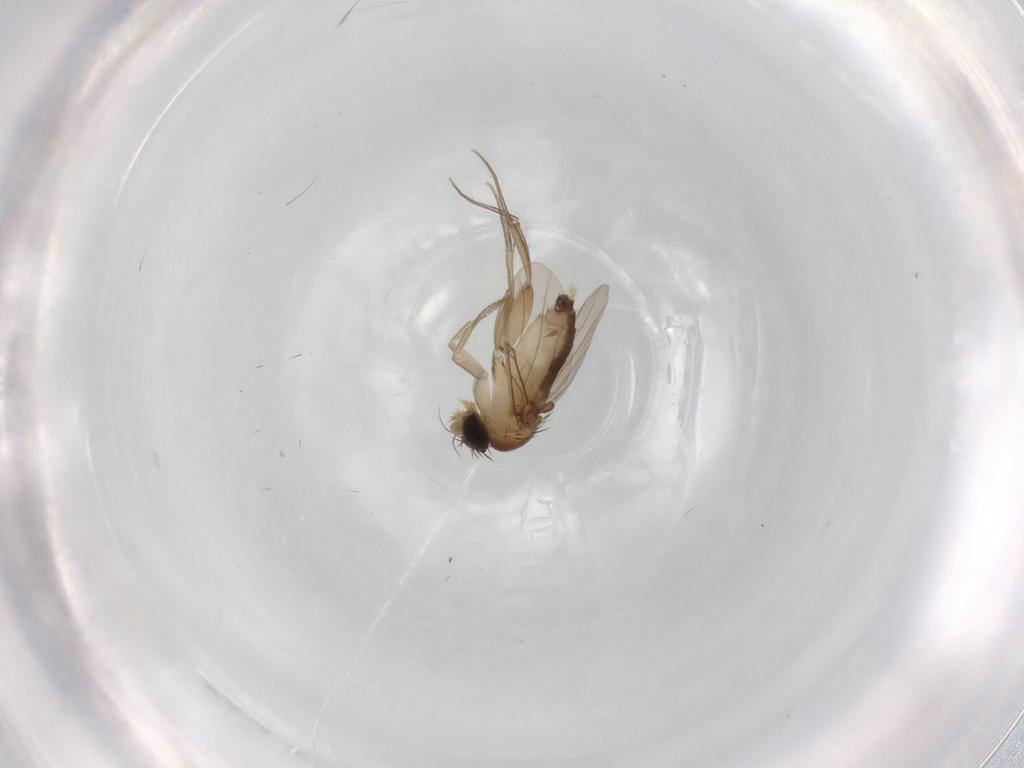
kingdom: Animalia
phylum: Arthropoda
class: Insecta
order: Diptera
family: Phoridae
